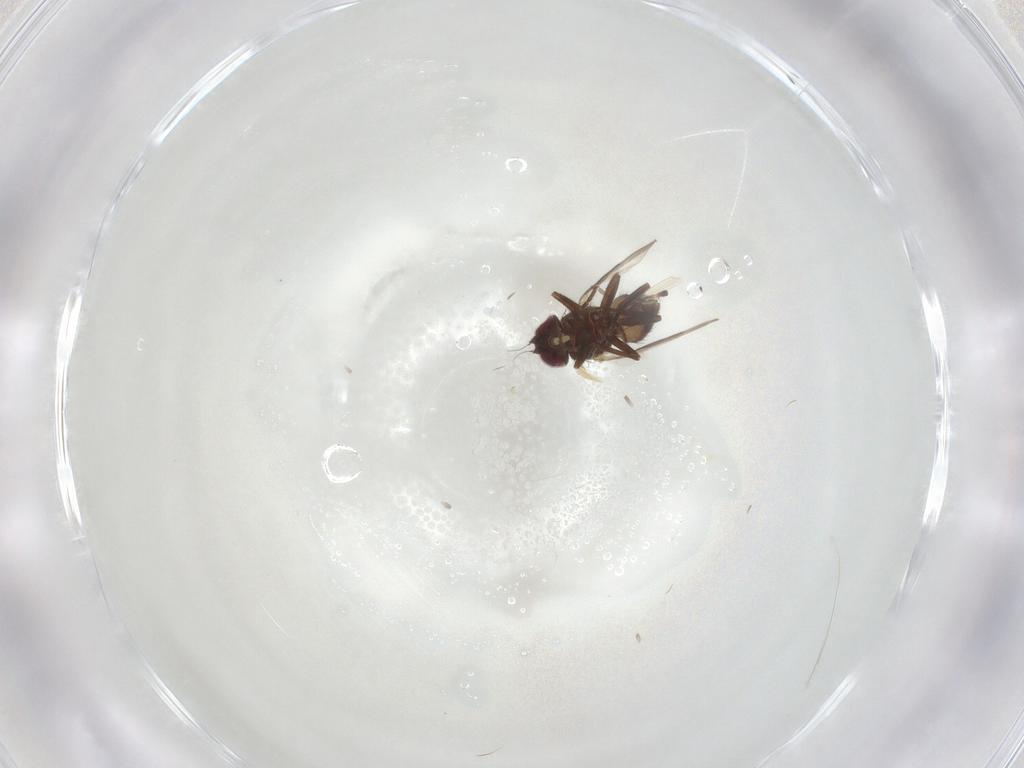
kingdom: Animalia
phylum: Arthropoda
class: Insecta
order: Diptera
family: Agromyzidae
